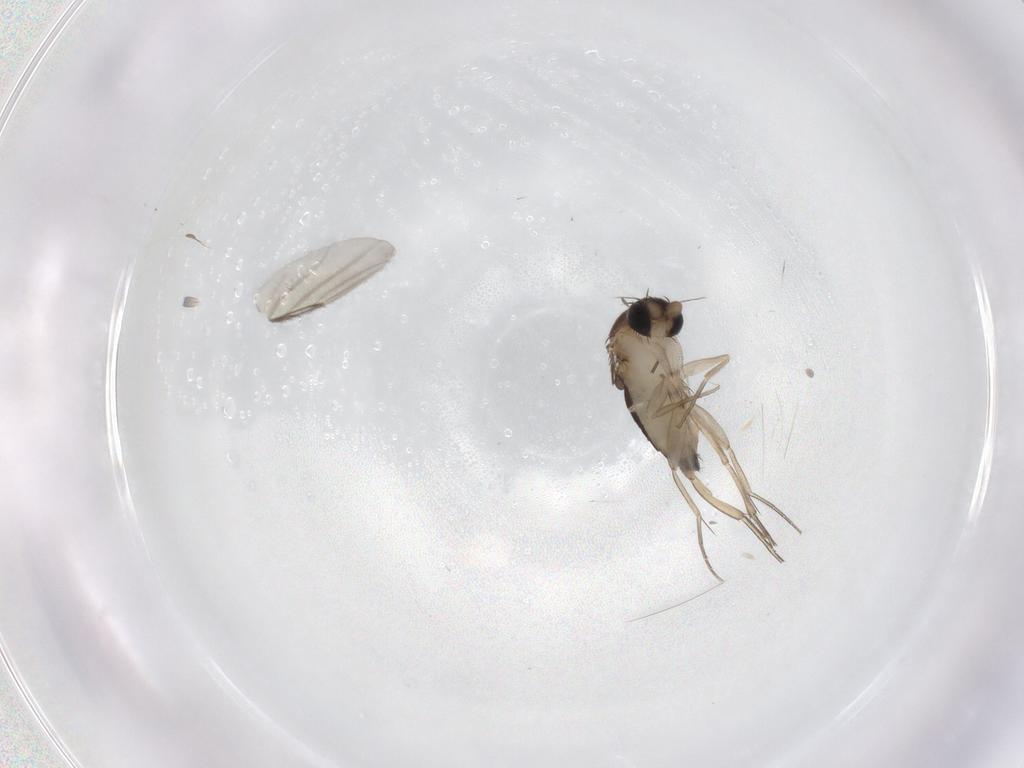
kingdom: Animalia
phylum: Arthropoda
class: Insecta
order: Diptera
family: Phoridae
